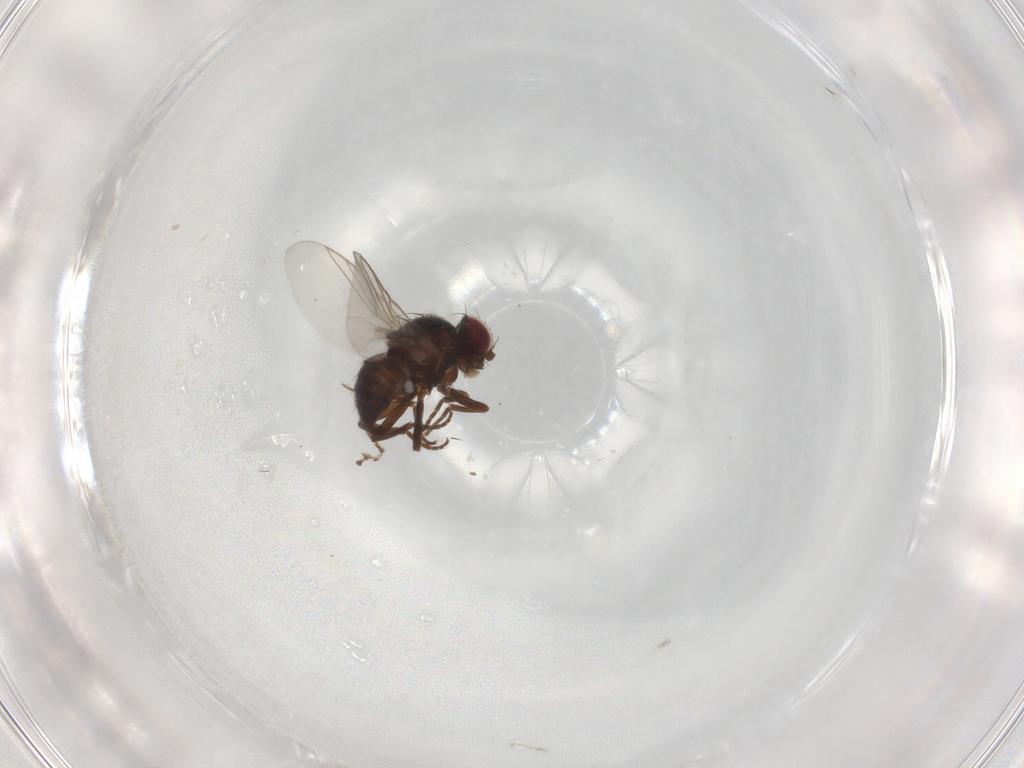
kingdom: Animalia
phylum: Arthropoda
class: Insecta
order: Diptera
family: Milichiidae
